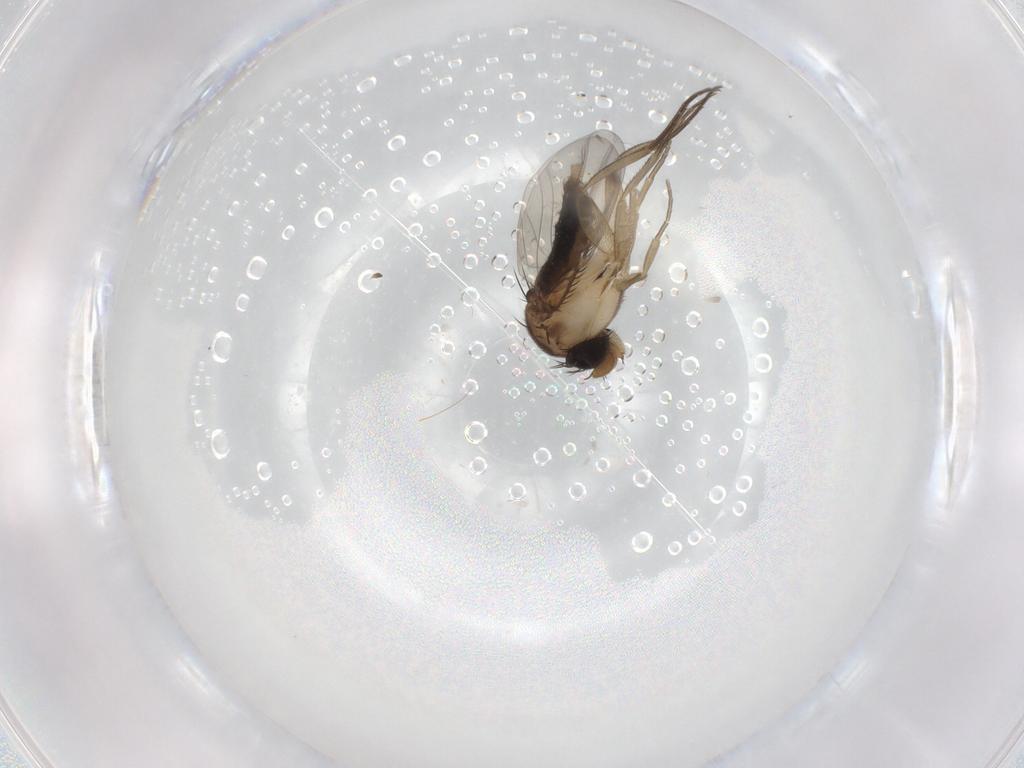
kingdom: Animalia
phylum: Arthropoda
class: Insecta
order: Diptera
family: Phoridae
